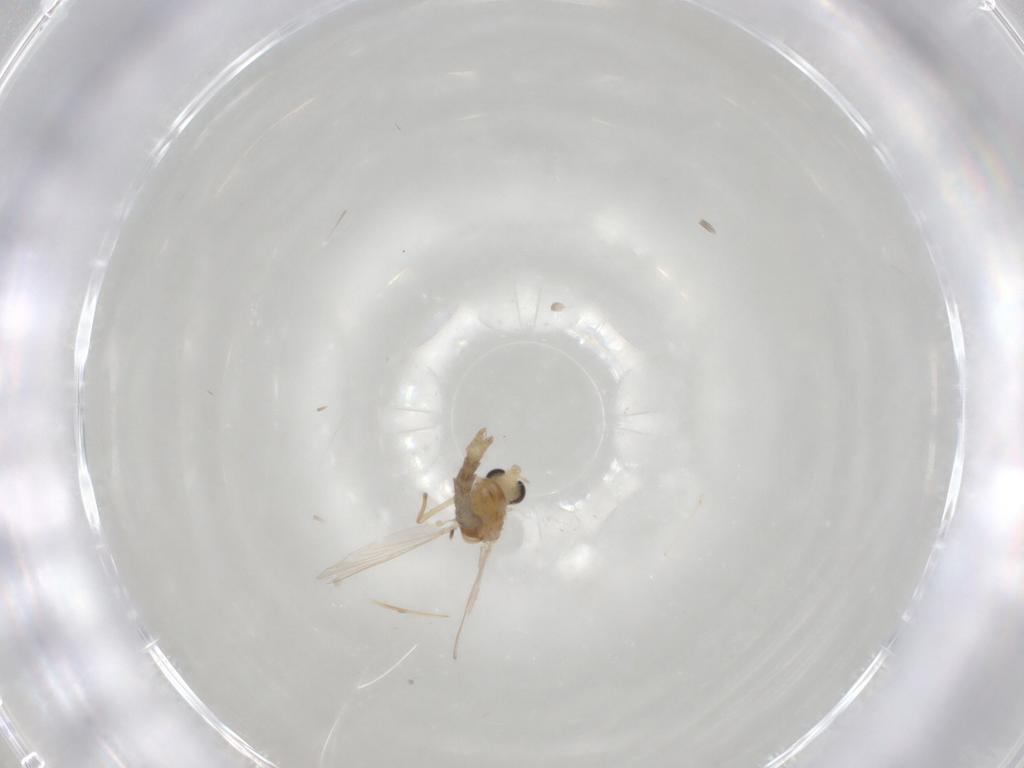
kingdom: Animalia
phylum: Arthropoda
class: Insecta
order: Diptera
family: Chironomidae
